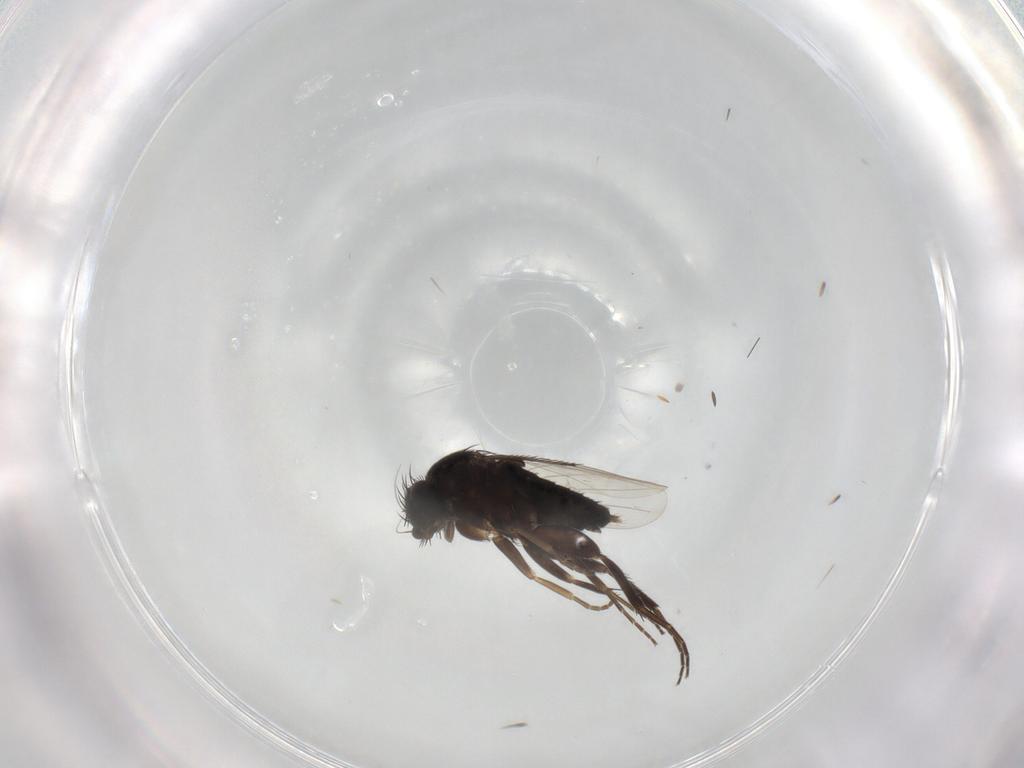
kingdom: Animalia
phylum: Arthropoda
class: Insecta
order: Diptera
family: Phoridae
